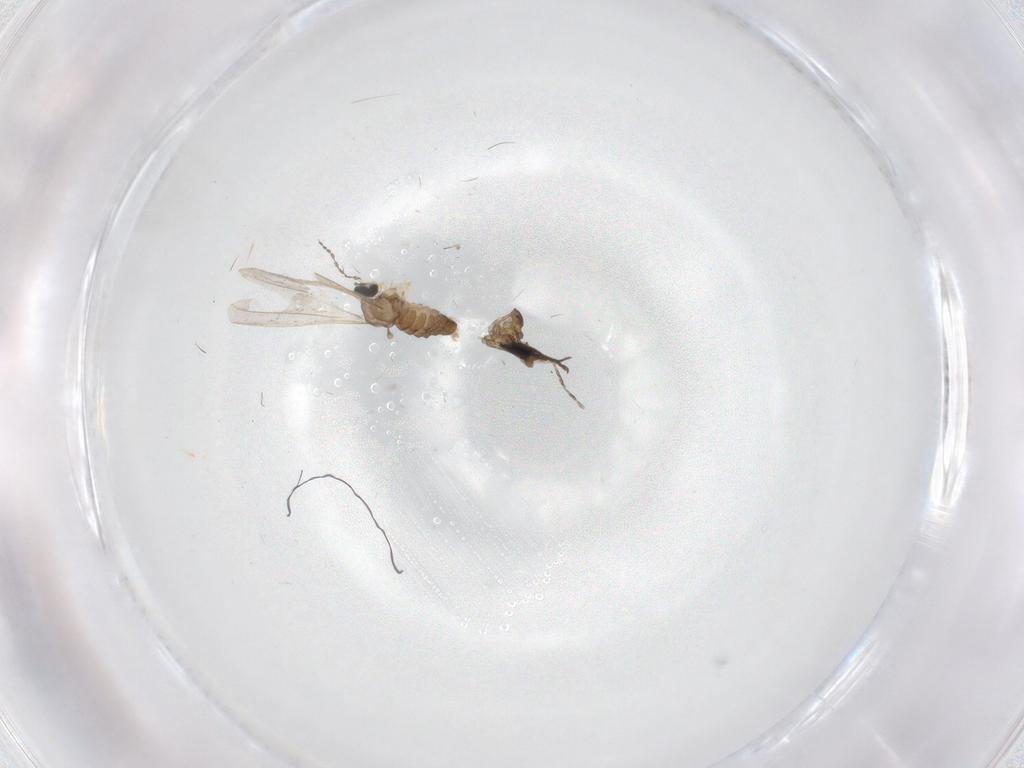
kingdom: Animalia
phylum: Arthropoda
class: Insecta
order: Diptera
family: Cecidomyiidae
